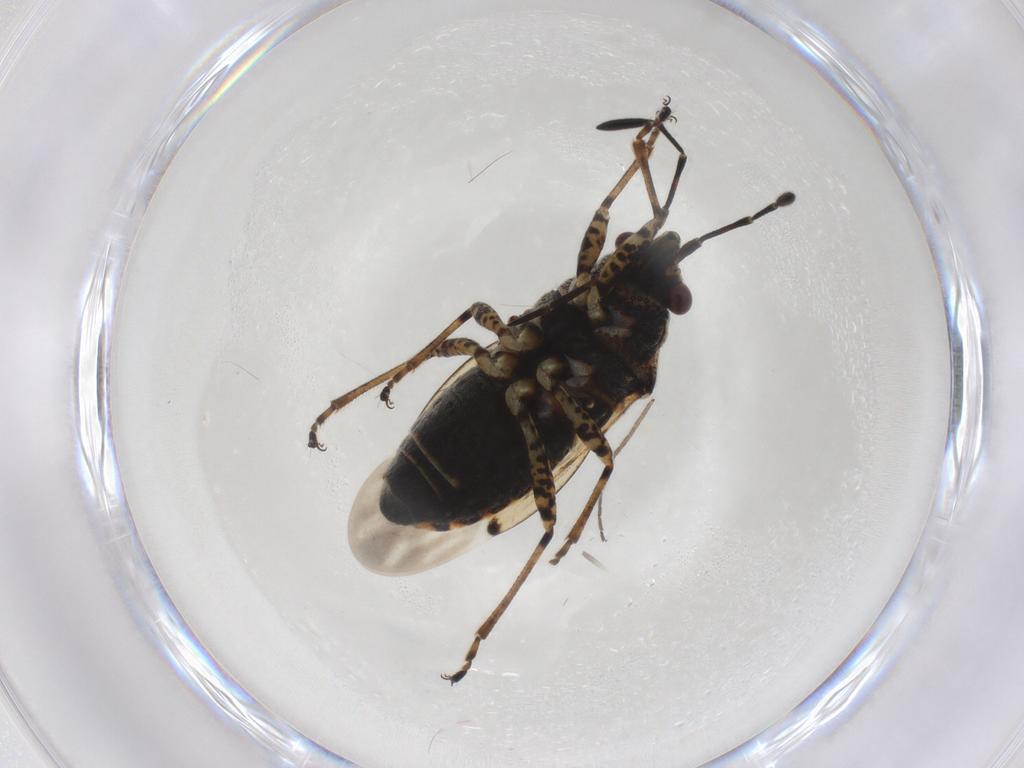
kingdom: Animalia
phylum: Arthropoda
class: Insecta
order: Hemiptera
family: Lygaeidae
